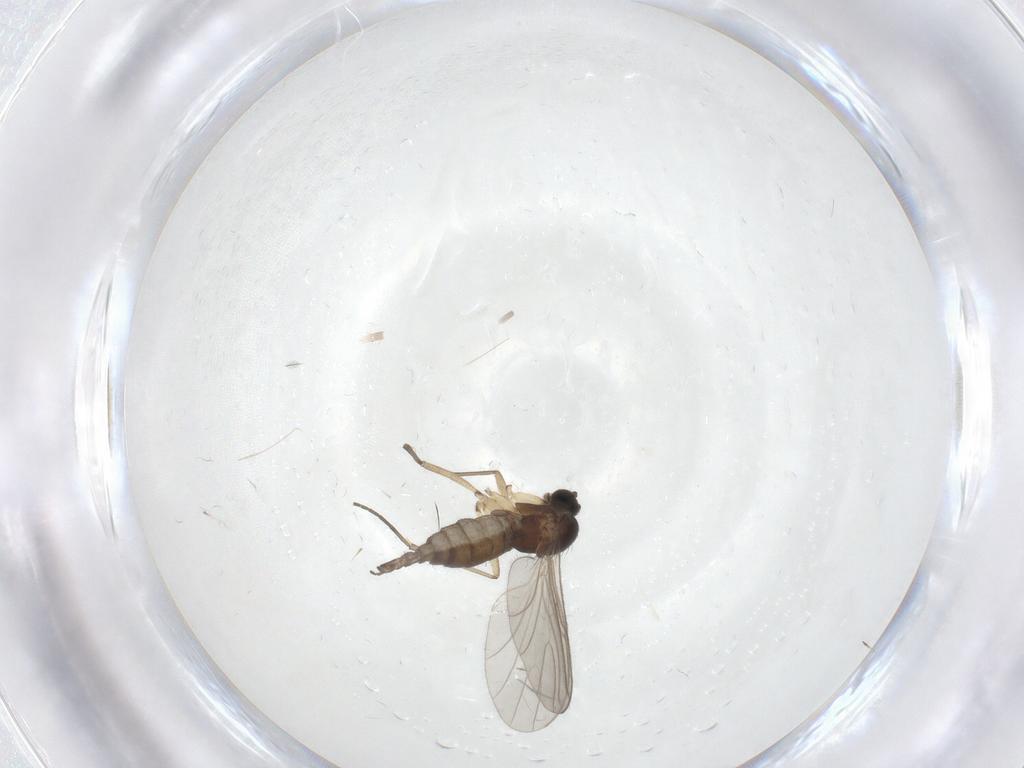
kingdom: Animalia
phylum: Arthropoda
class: Insecta
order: Diptera
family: Sciaridae
